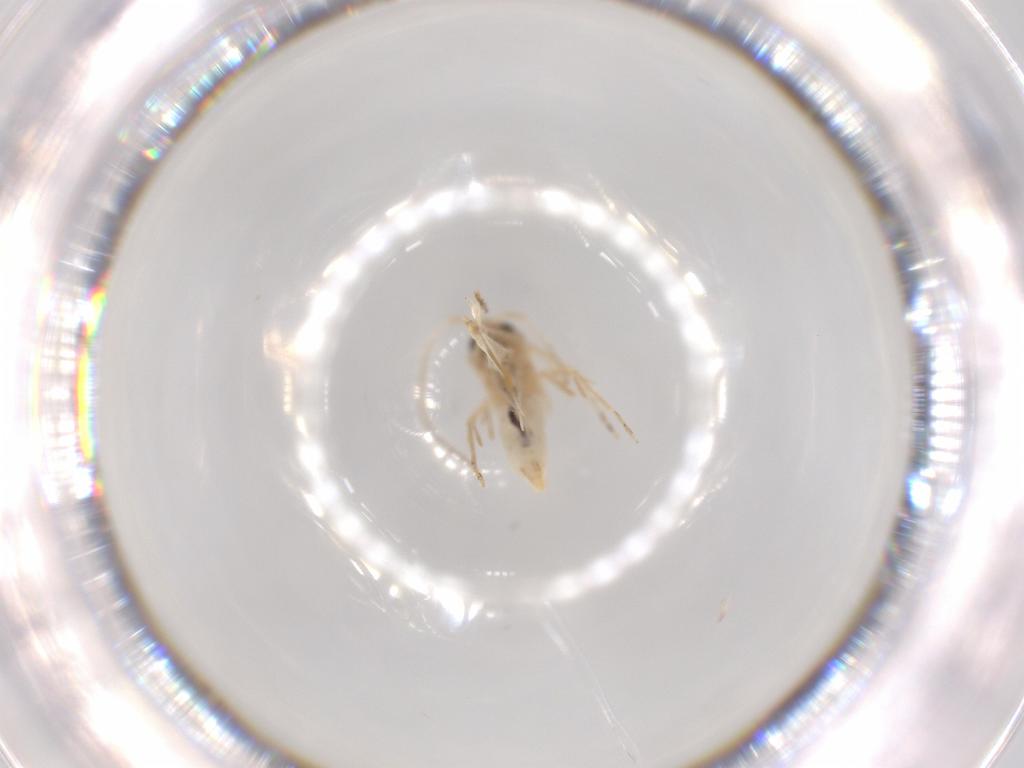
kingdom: Animalia
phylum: Arthropoda
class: Insecta
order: Lepidoptera
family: Bucculatricidae
